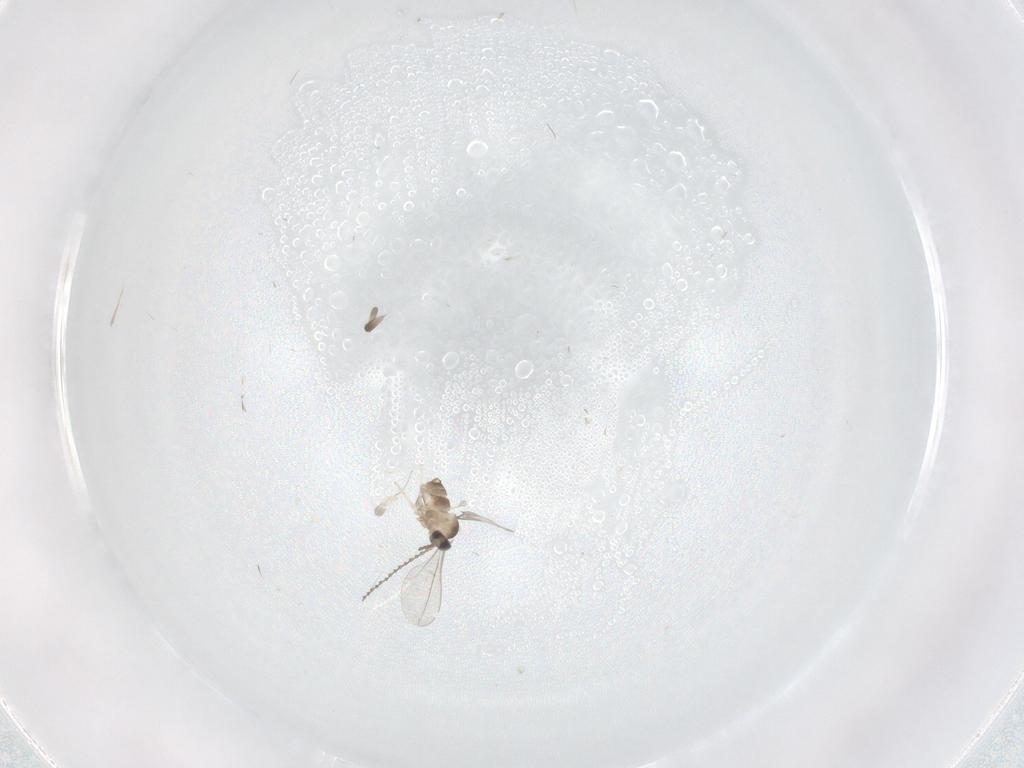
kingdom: Animalia
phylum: Arthropoda
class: Insecta
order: Diptera
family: Cecidomyiidae
